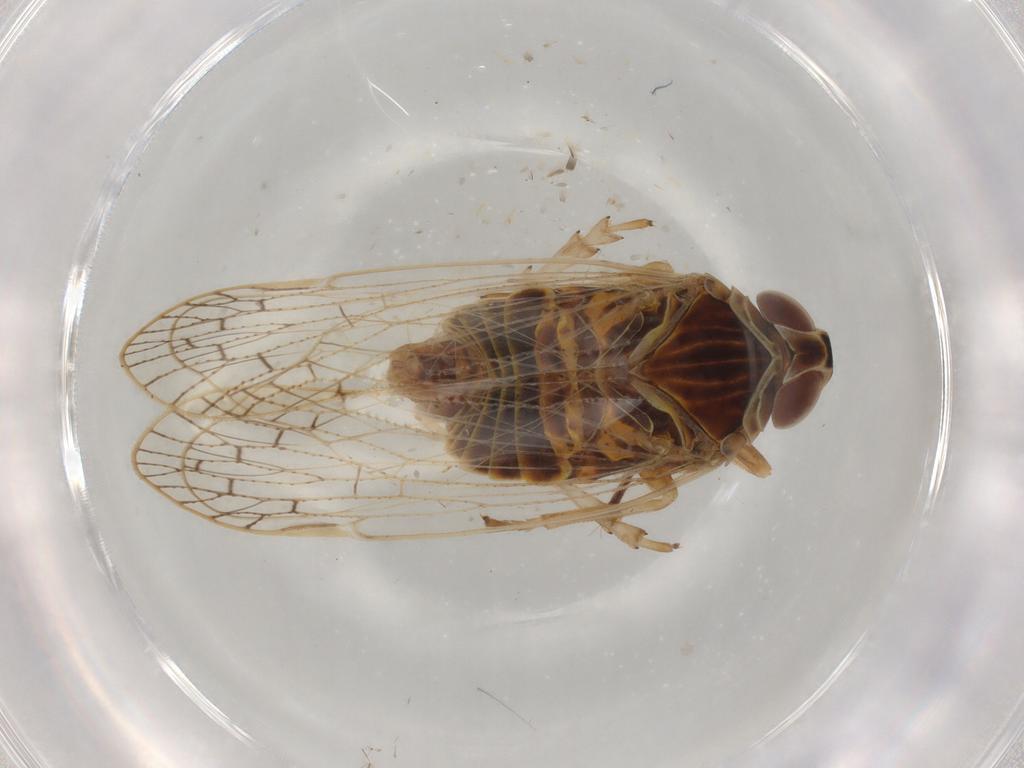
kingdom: Animalia
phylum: Arthropoda
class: Insecta
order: Hemiptera
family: Cixiidae
